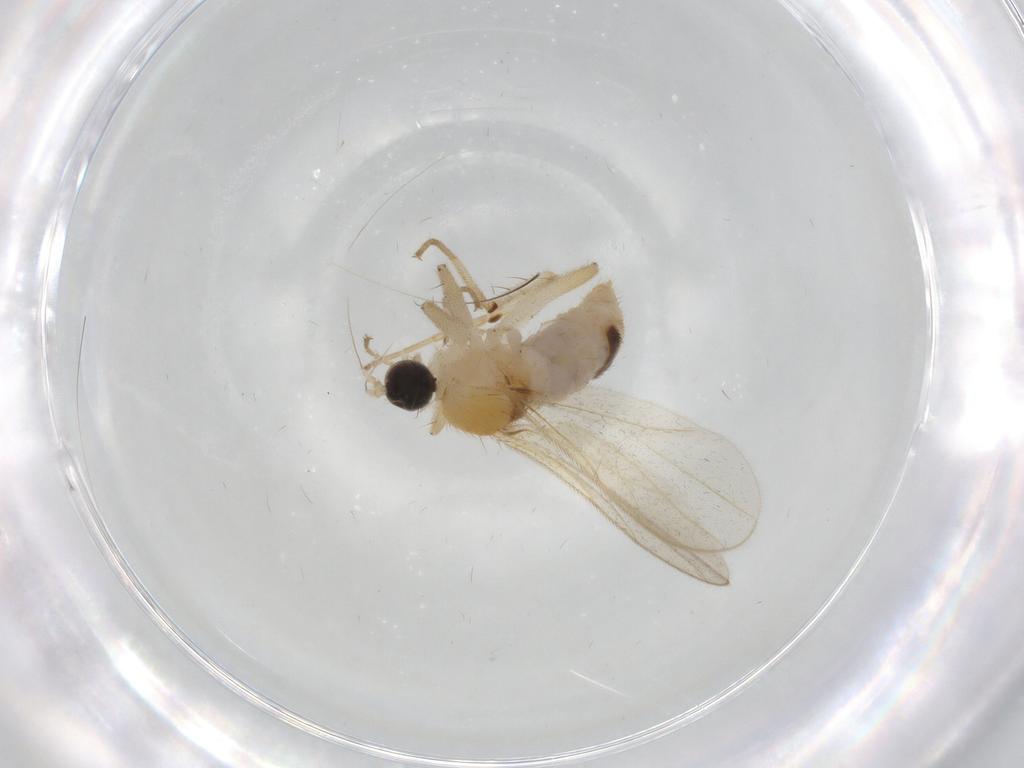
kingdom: Animalia
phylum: Arthropoda
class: Insecta
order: Diptera
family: Hybotidae
